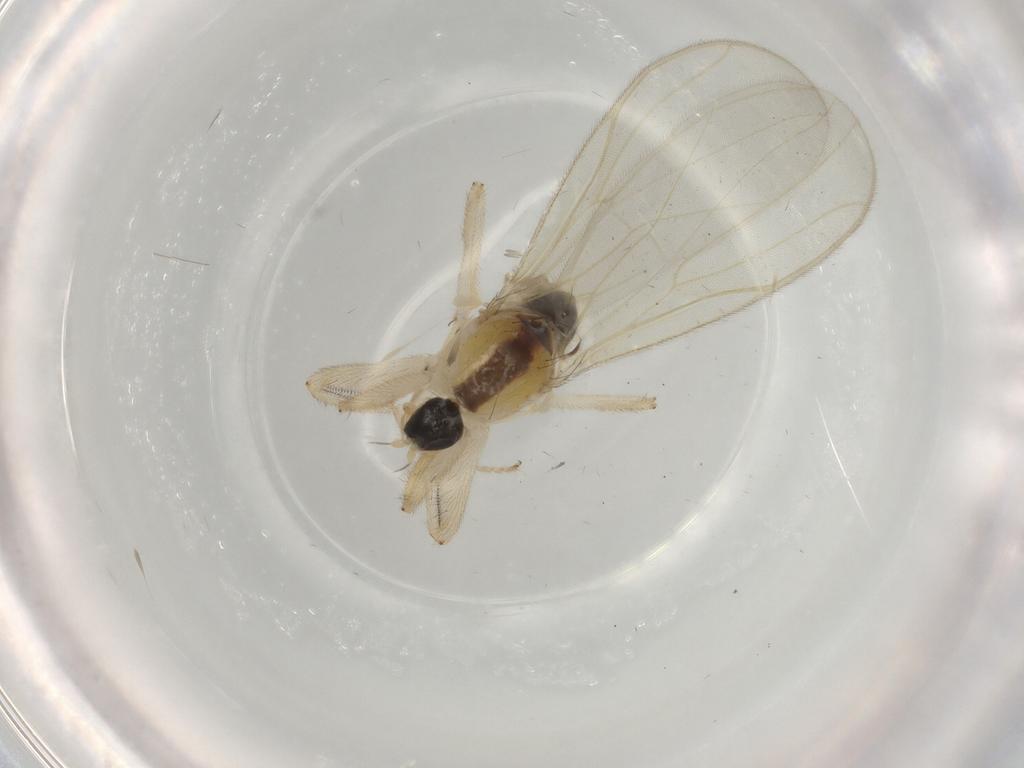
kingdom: Animalia
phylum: Arthropoda
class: Insecta
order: Diptera
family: Hybotidae
